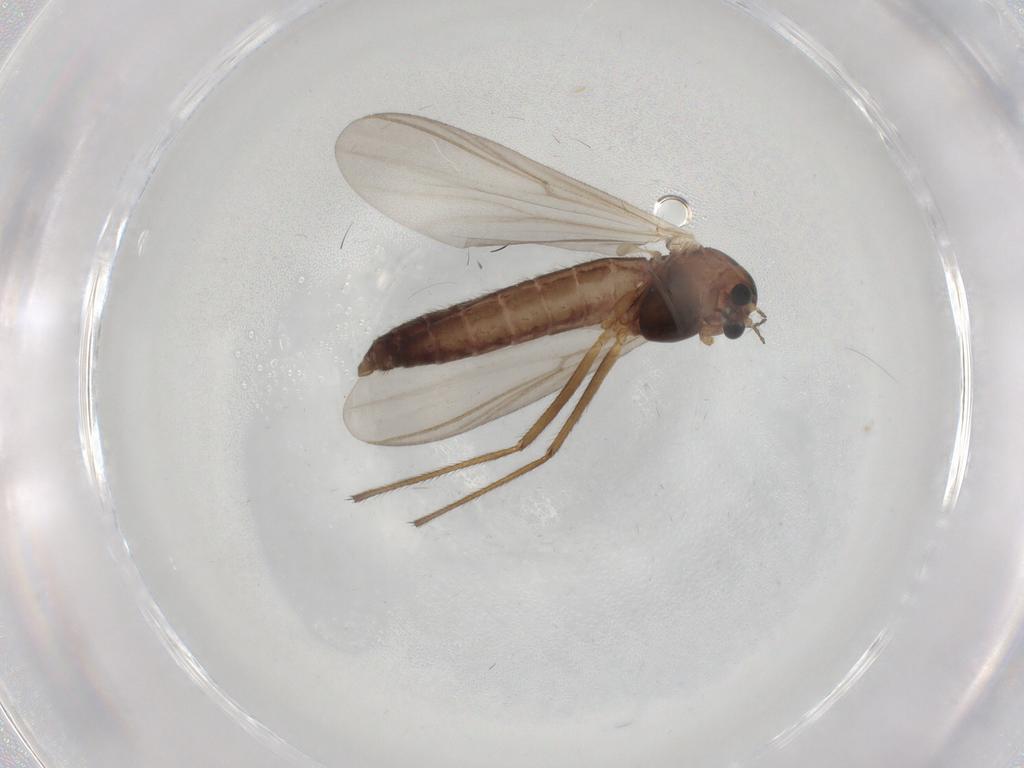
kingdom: Animalia
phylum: Arthropoda
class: Insecta
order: Diptera
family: Chironomidae
